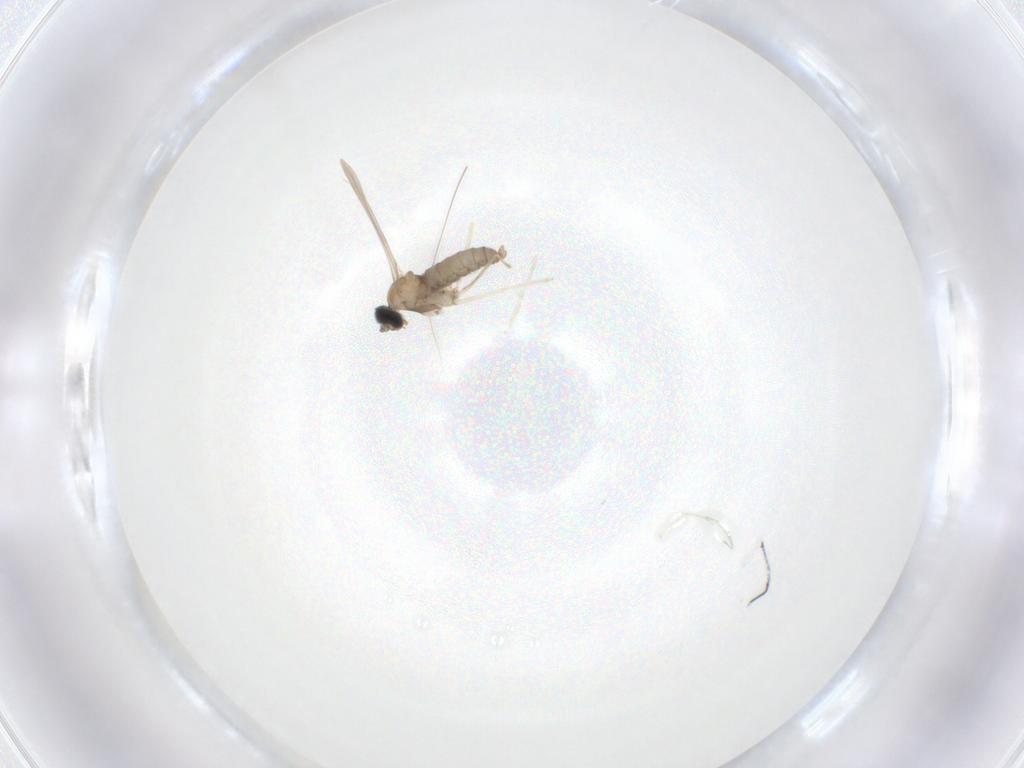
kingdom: Animalia
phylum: Arthropoda
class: Insecta
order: Diptera
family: Cecidomyiidae
